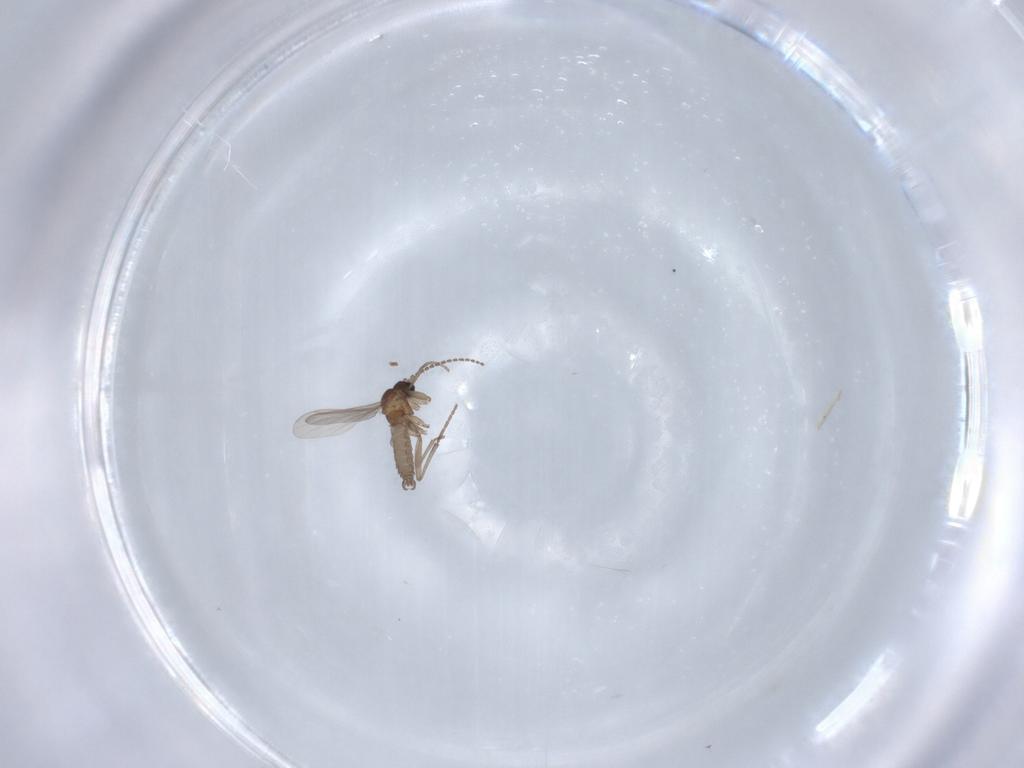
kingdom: Animalia
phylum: Arthropoda
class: Insecta
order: Diptera
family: Sciaridae
